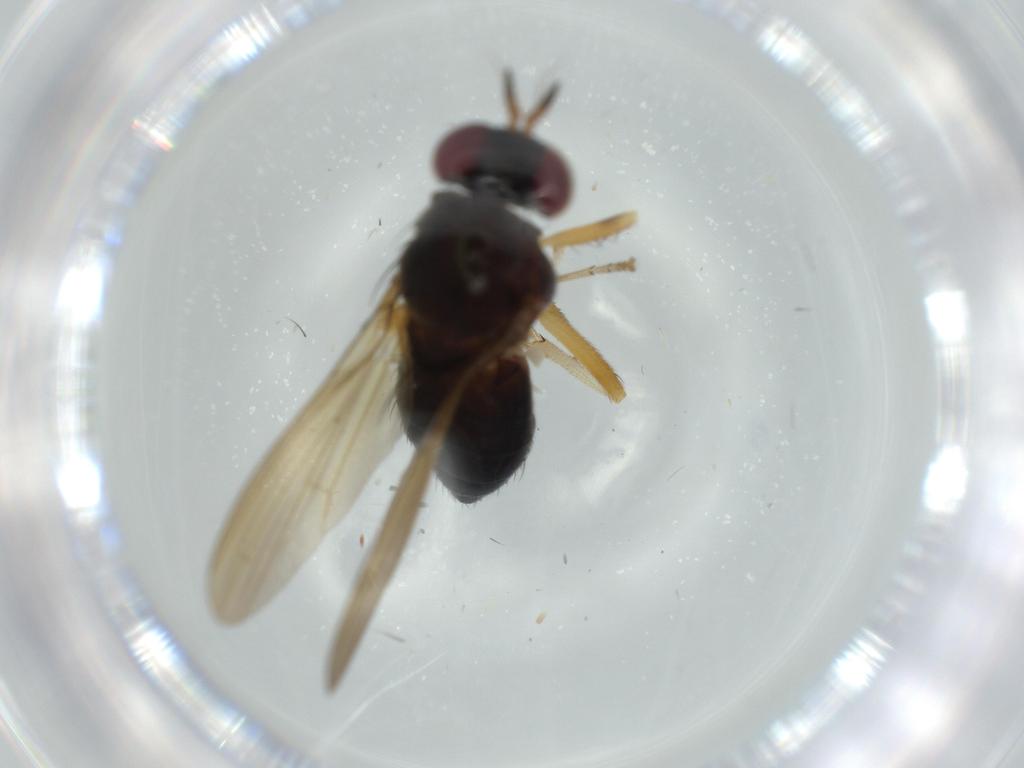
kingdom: Animalia
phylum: Arthropoda
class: Insecta
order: Diptera
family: Sciaridae
